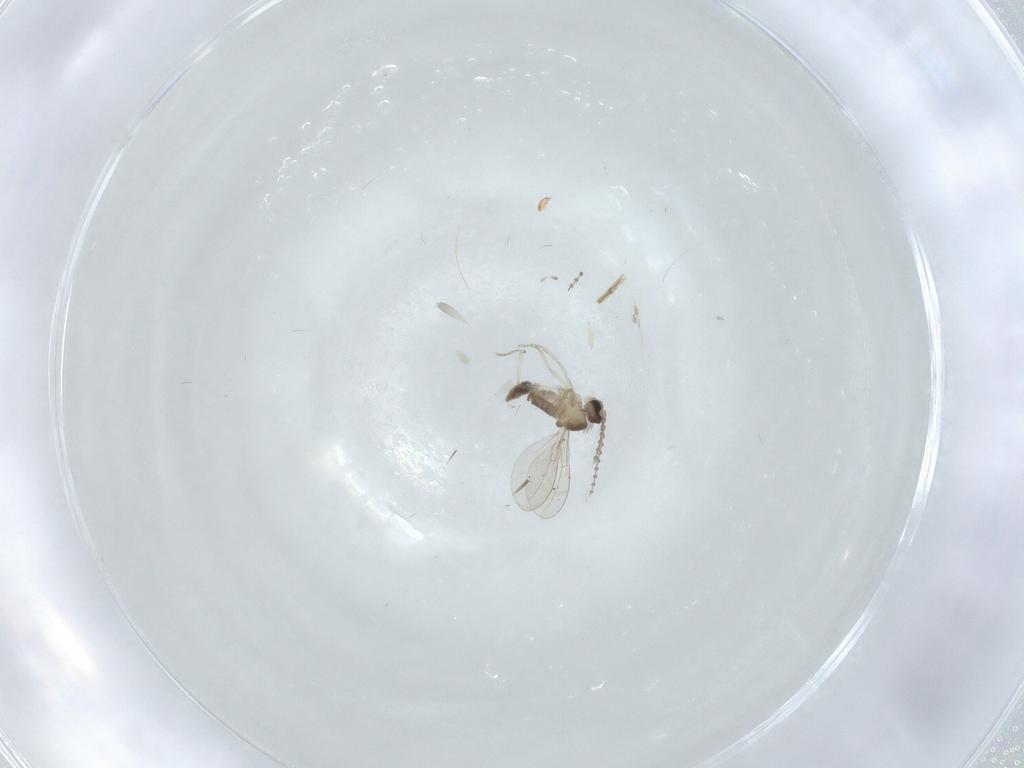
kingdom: Animalia
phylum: Arthropoda
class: Insecta
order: Diptera
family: Cecidomyiidae
